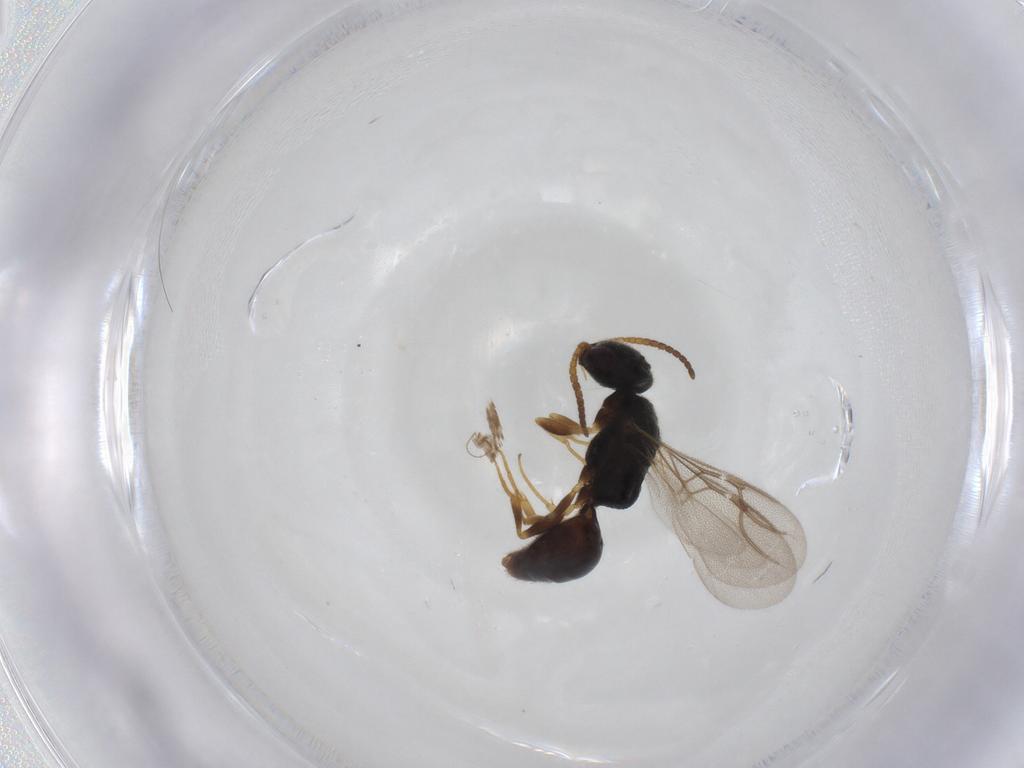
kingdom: Animalia
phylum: Arthropoda
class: Insecta
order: Hymenoptera
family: Bethylidae
